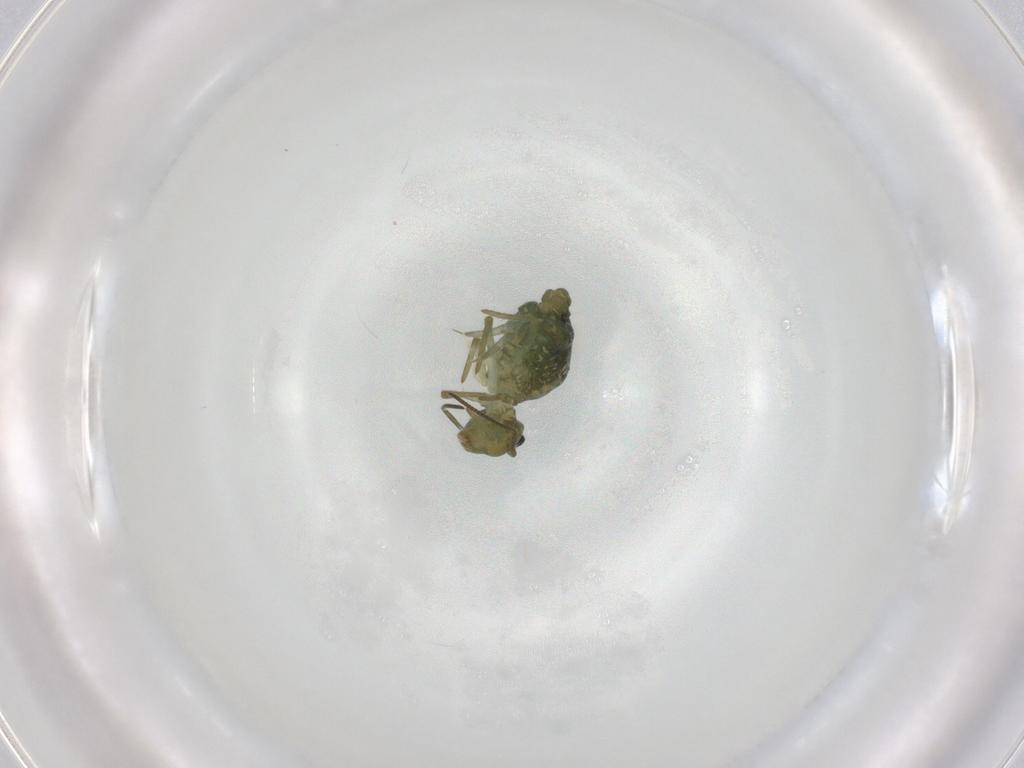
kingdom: Animalia
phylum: Arthropoda
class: Collembola
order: Symphypleona
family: Sminthuridae
